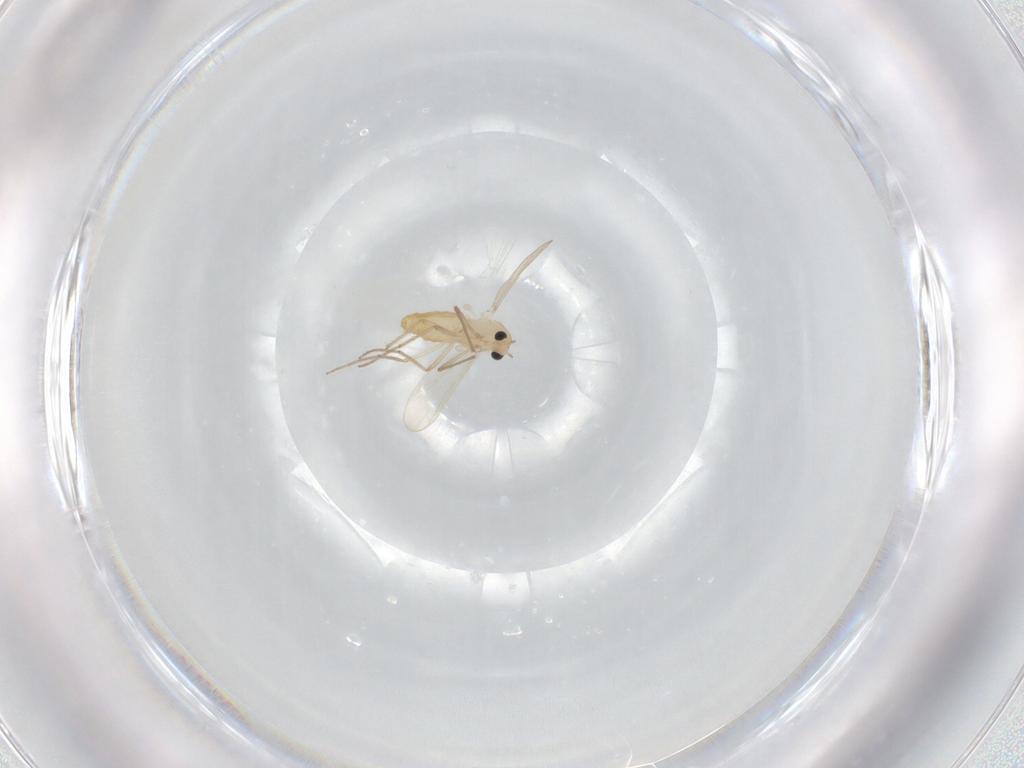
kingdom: Animalia
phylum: Arthropoda
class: Insecta
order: Diptera
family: Chironomidae
